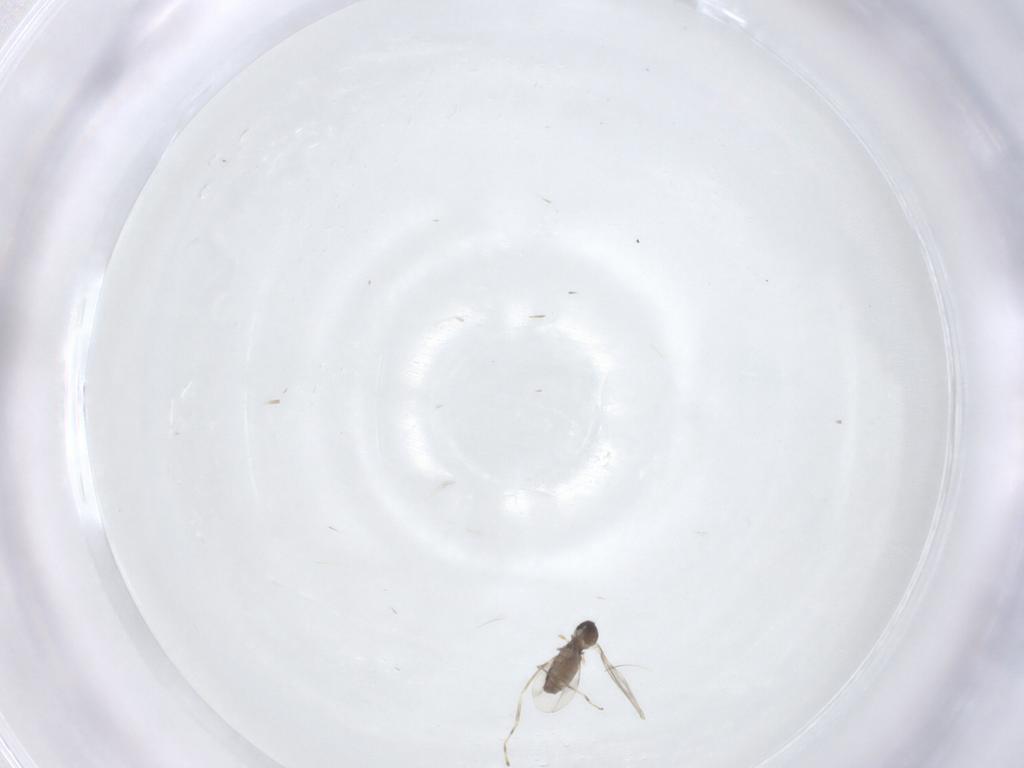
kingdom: Animalia
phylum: Arthropoda
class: Insecta
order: Diptera
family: Cecidomyiidae
